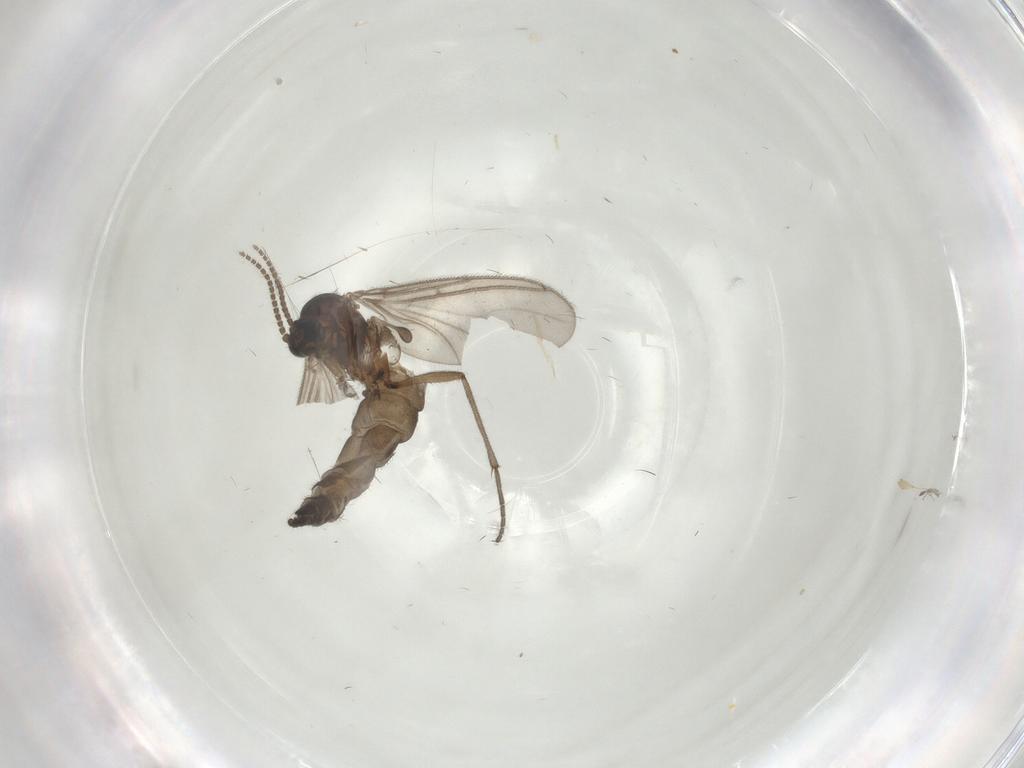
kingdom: Animalia
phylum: Arthropoda
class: Insecta
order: Diptera
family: Sciaridae
